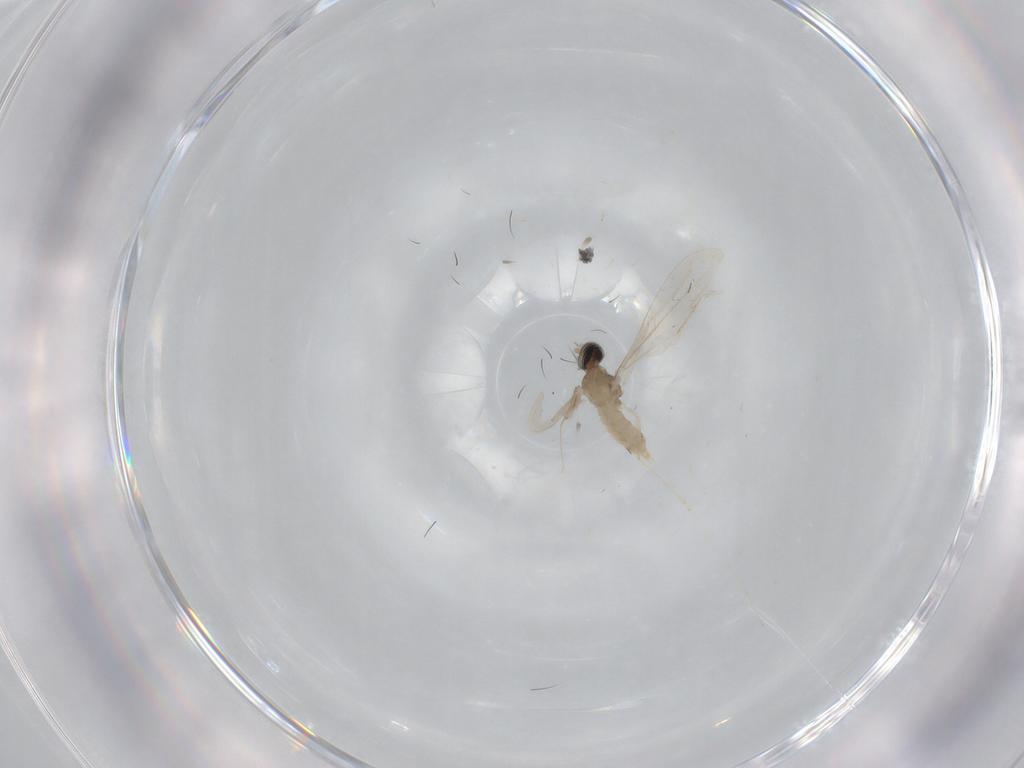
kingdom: Animalia
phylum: Arthropoda
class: Insecta
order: Diptera
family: Cecidomyiidae
